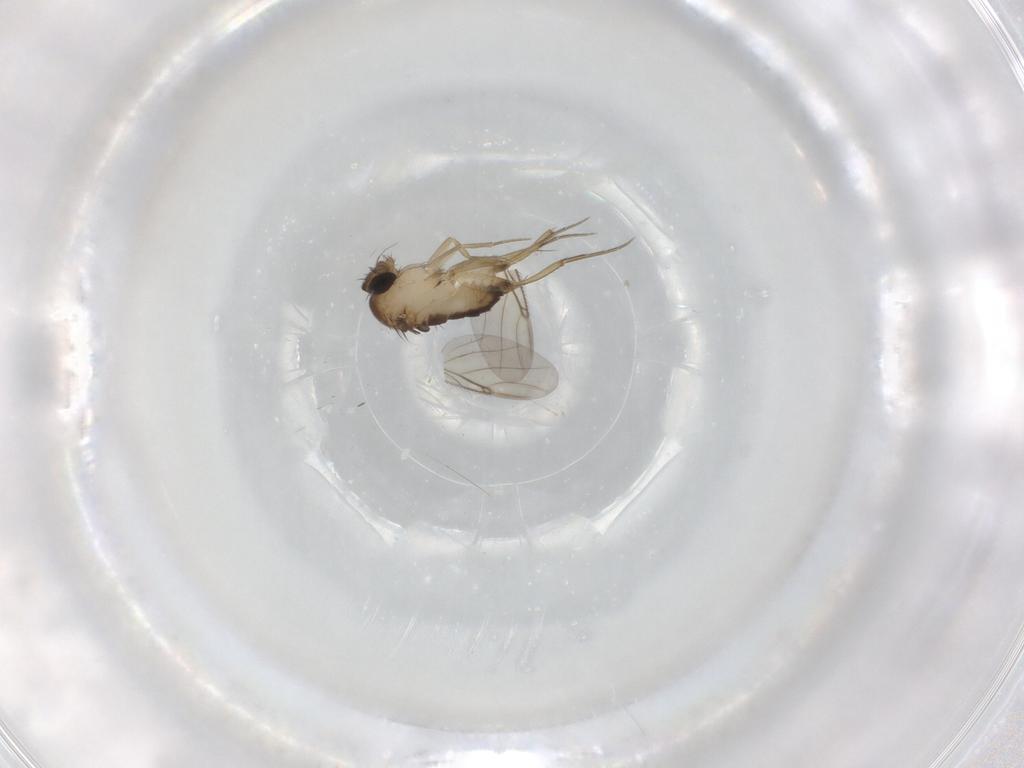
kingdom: Animalia
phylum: Arthropoda
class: Insecta
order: Diptera
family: Phoridae
